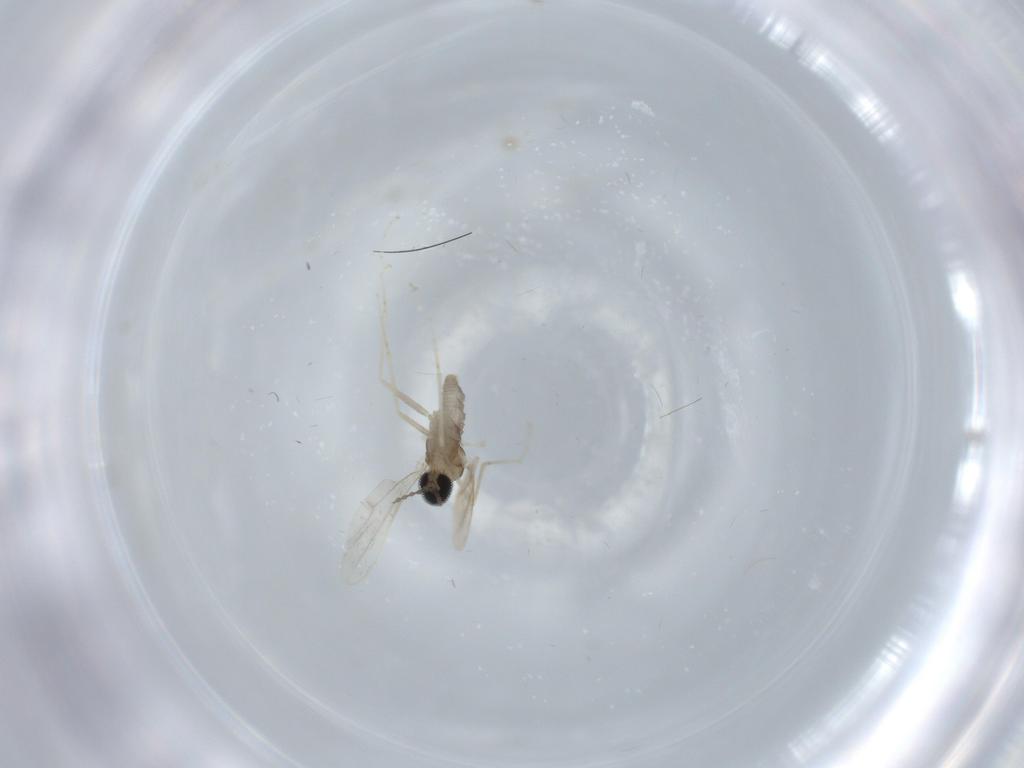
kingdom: Animalia
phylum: Arthropoda
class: Insecta
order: Diptera
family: Cecidomyiidae
